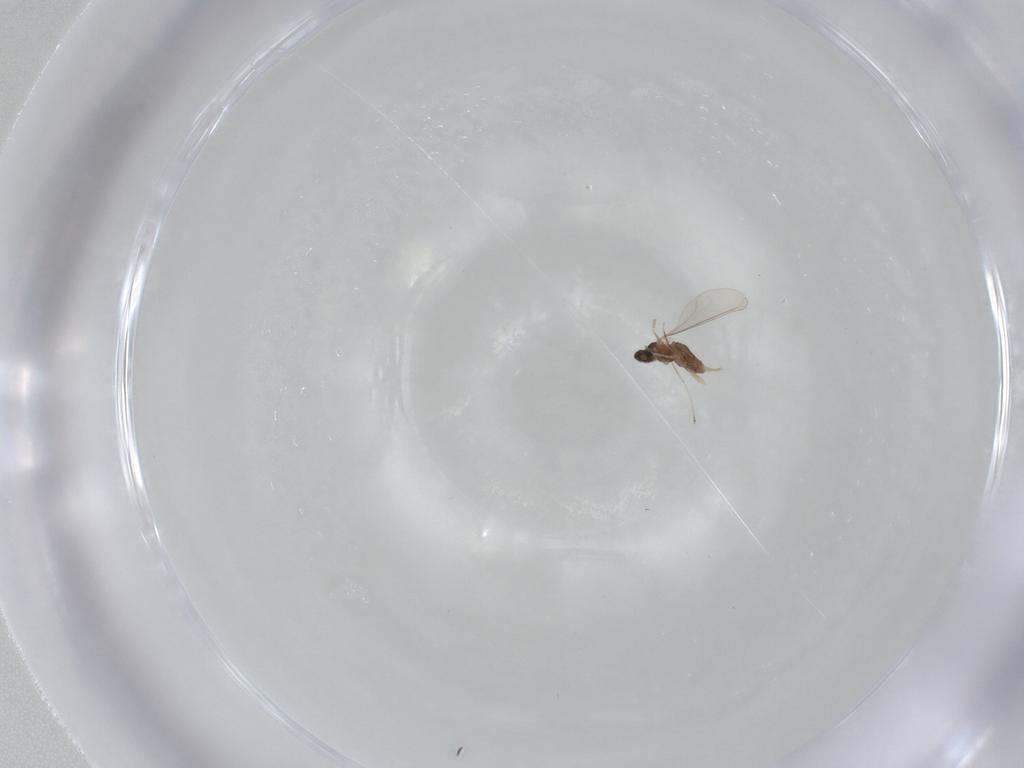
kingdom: Animalia
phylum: Arthropoda
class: Insecta
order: Diptera
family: Cecidomyiidae
